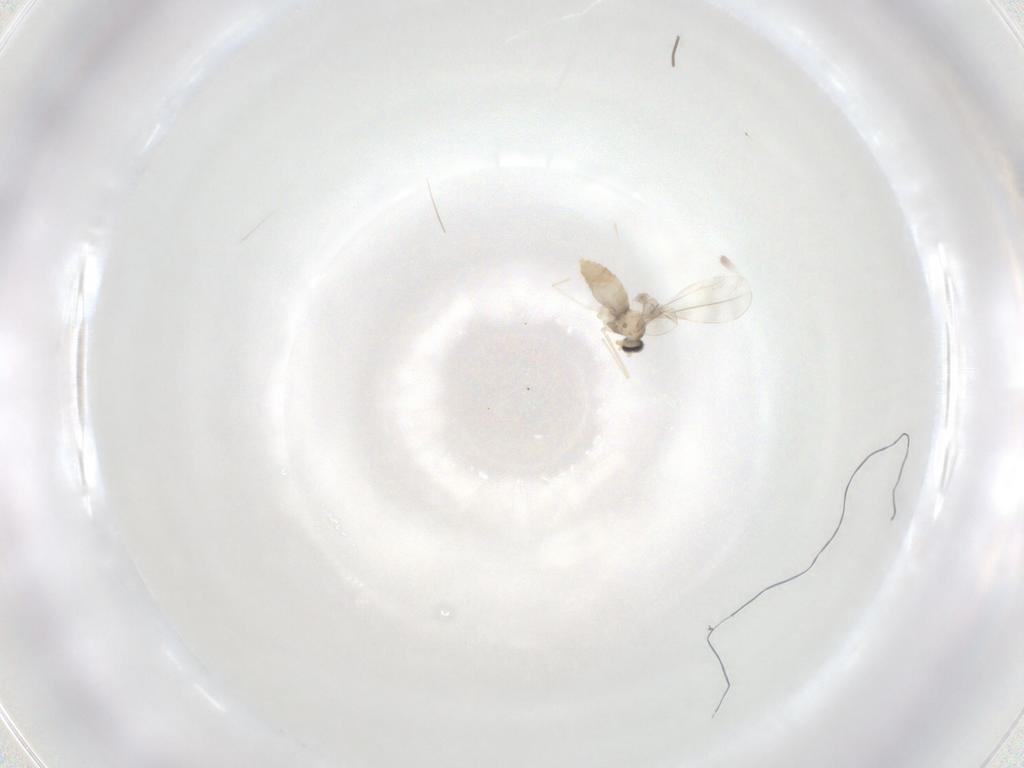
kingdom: Animalia
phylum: Arthropoda
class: Insecta
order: Diptera
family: Cecidomyiidae
